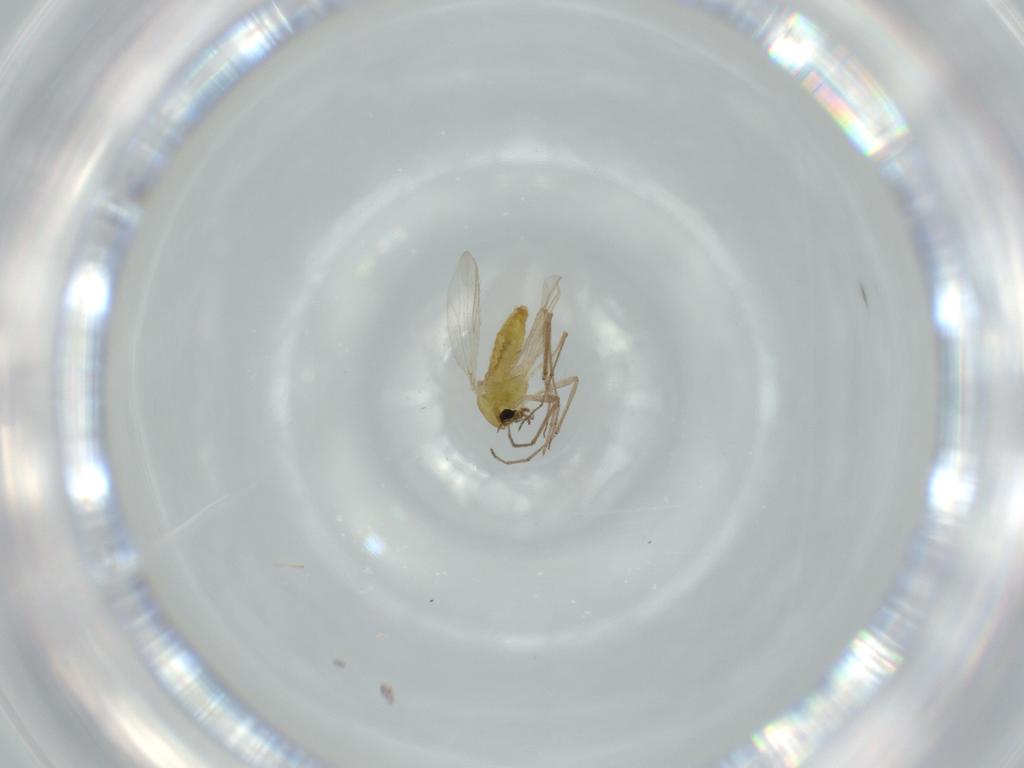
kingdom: Animalia
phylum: Arthropoda
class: Insecta
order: Diptera
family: Chironomidae
